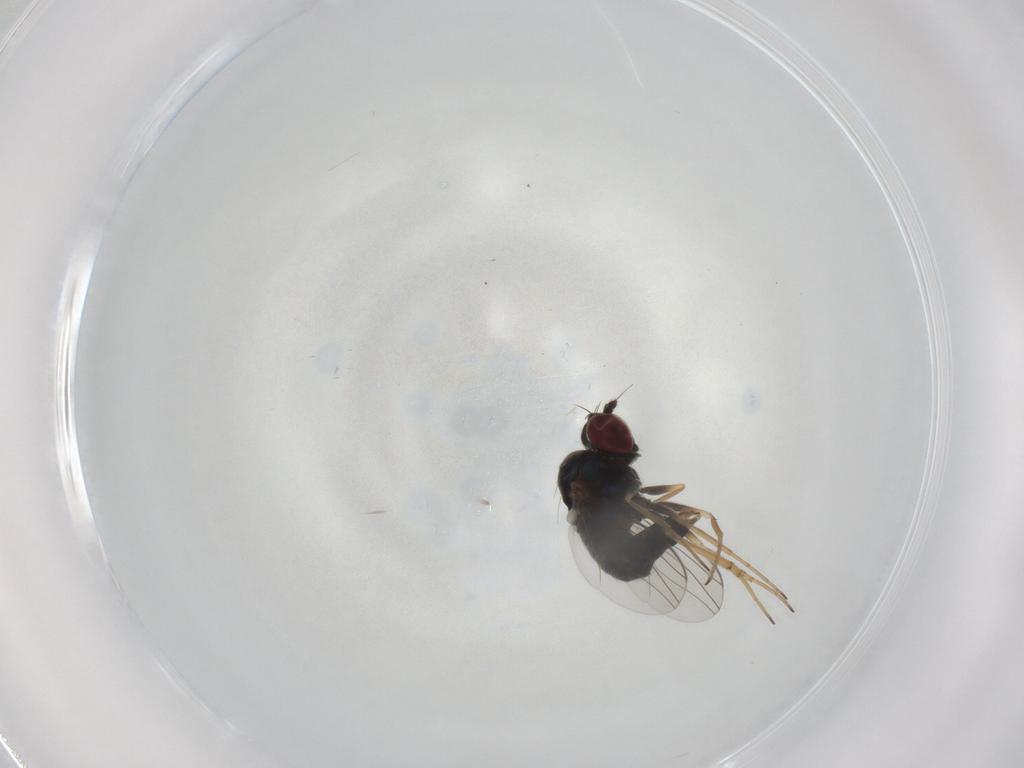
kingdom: Animalia
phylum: Arthropoda
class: Insecta
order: Diptera
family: Dolichopodidae
